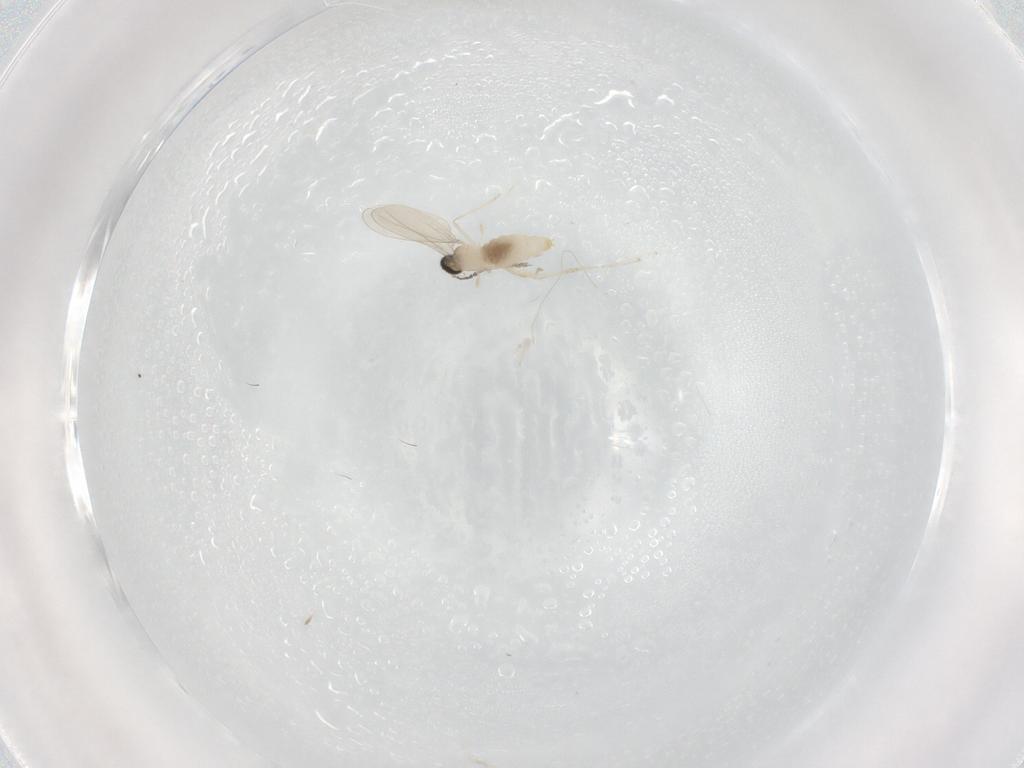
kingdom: Animalia
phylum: Arthropoda
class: Insecta
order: Diptera
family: Cecidomyiidae
